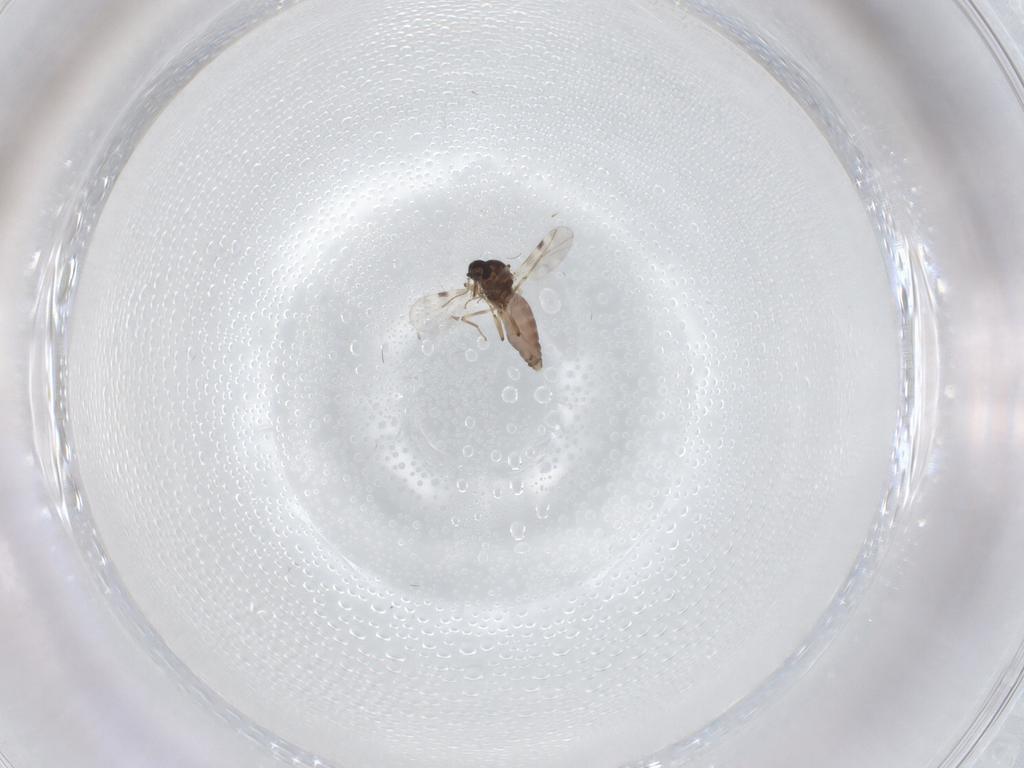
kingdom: Animalia
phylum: Arthropoda
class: Insecta
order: Diptera
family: Ceratopogonidae
